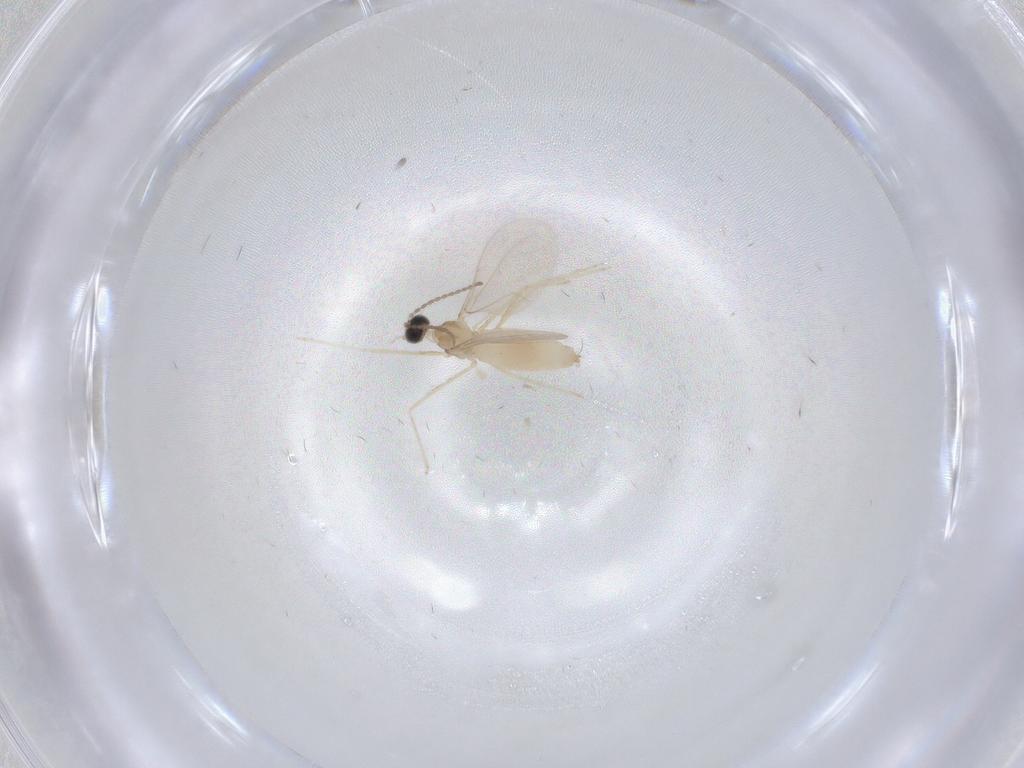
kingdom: Animalia
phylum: Arthropoda
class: Insecta
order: Diptera
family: Cecidomyiidae
